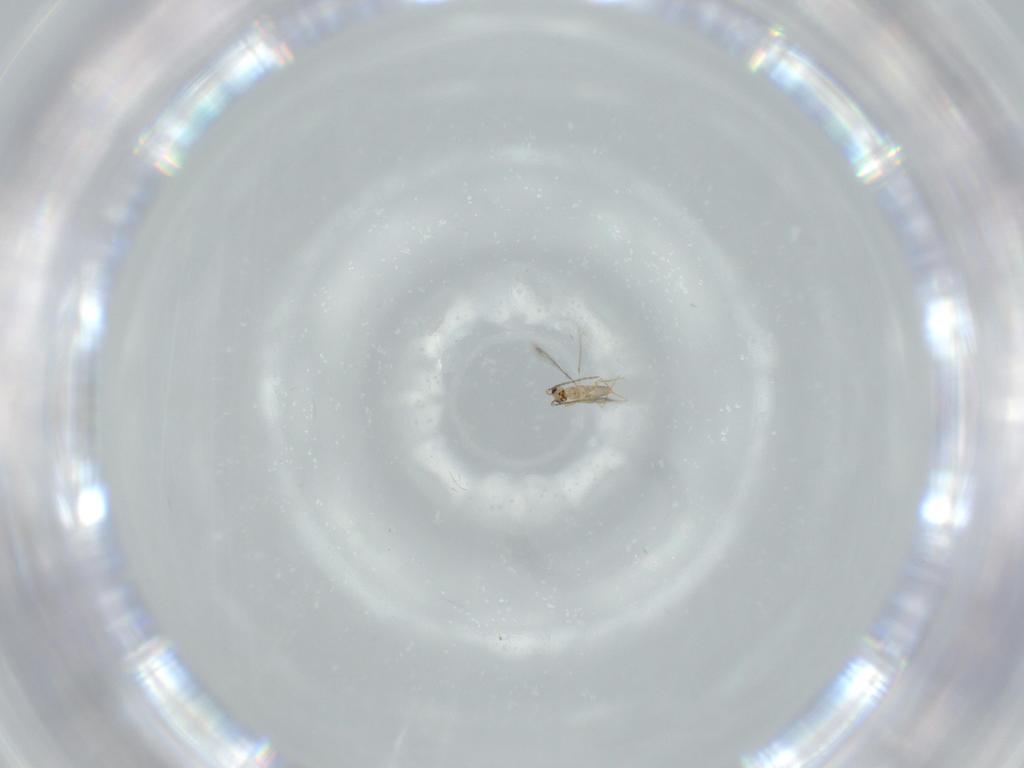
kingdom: Animalia
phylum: Arthropoda
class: Insecta
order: Hymenoptera
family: Mymaridae
